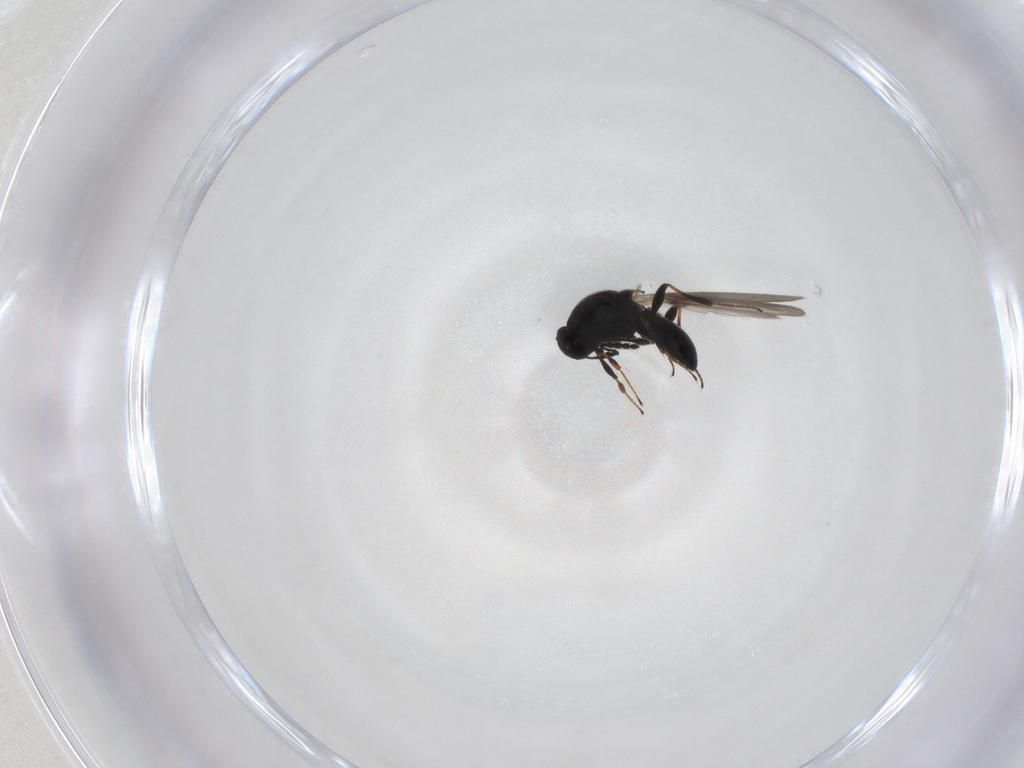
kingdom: Animalia
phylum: Arthropoda
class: Insecta
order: Hymenoptera
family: Platygastridae
